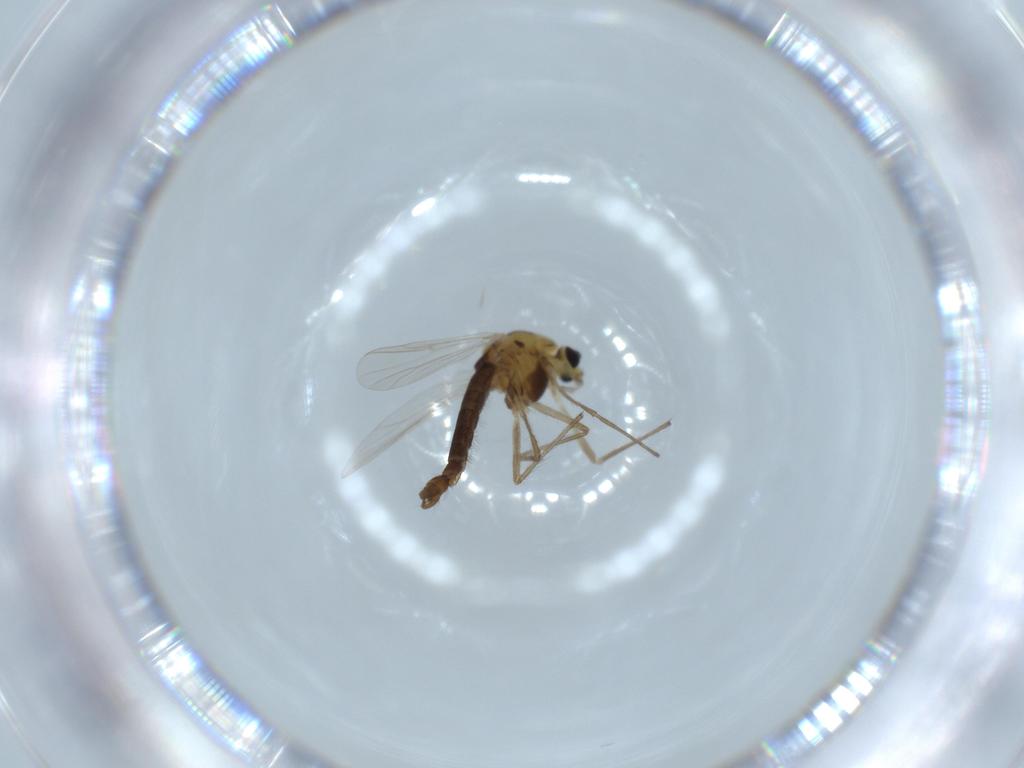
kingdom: Animalia
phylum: Arthropoda
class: Insecta
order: Diptera
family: Chironomidae
